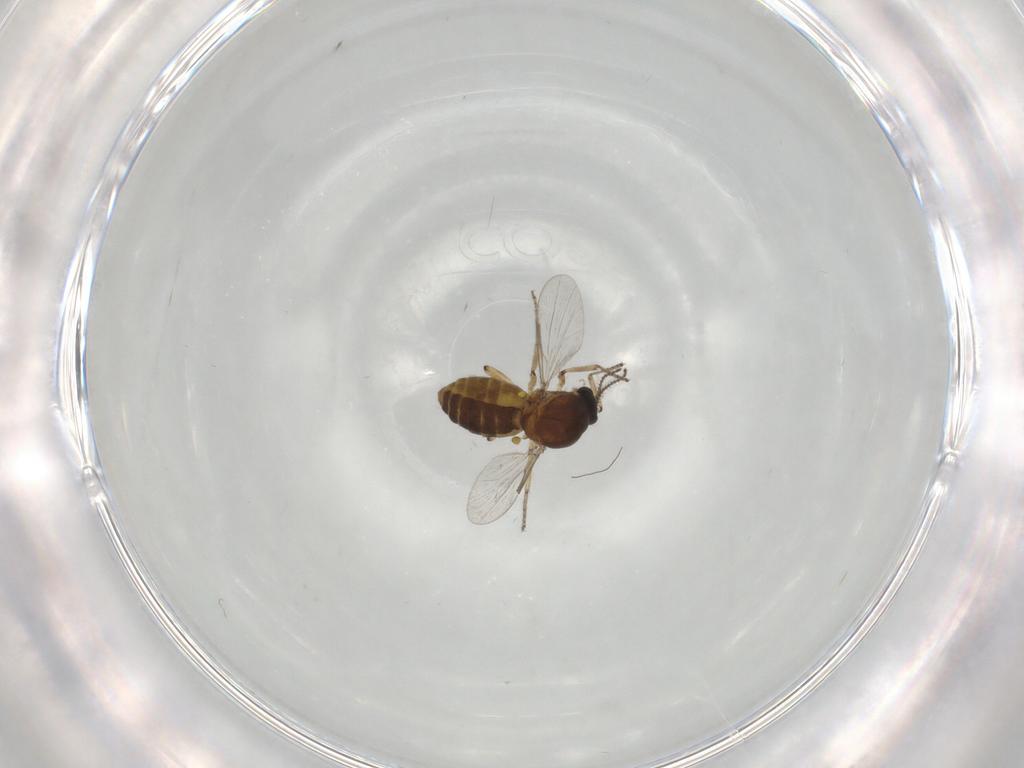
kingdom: Animalia
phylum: Arthropoda
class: Insecta
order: Diptera
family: Ceratopogonidae
